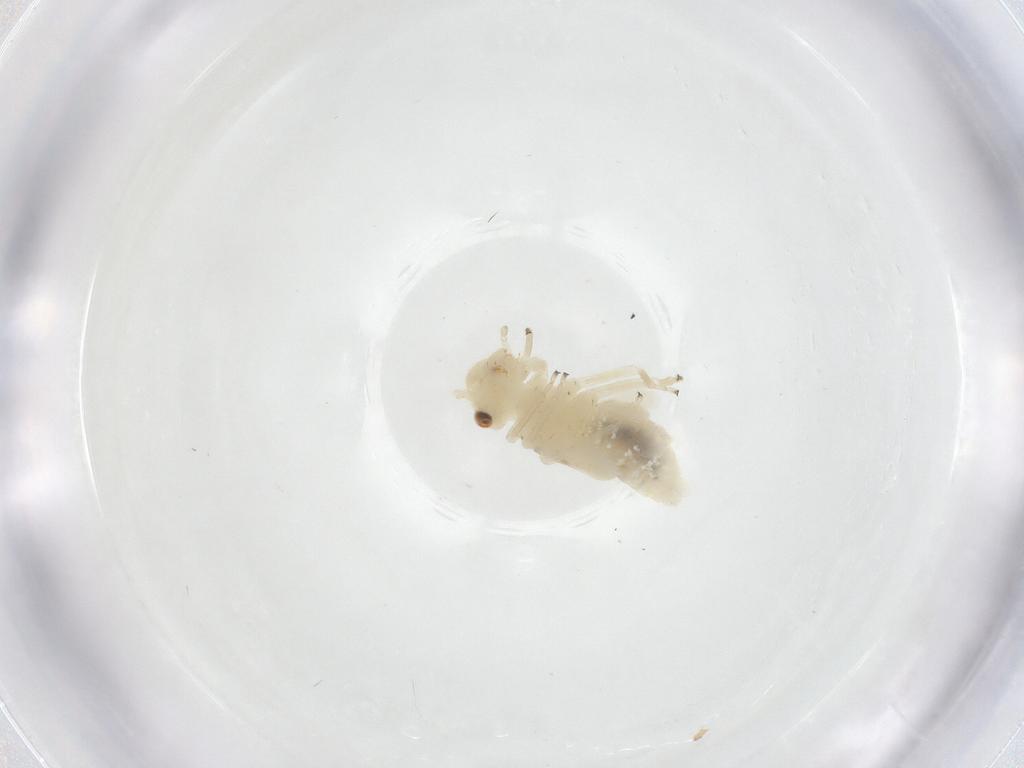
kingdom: Animalia
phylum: Arthropoda
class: Insecta
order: Psocodea
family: Caeciliusidae
